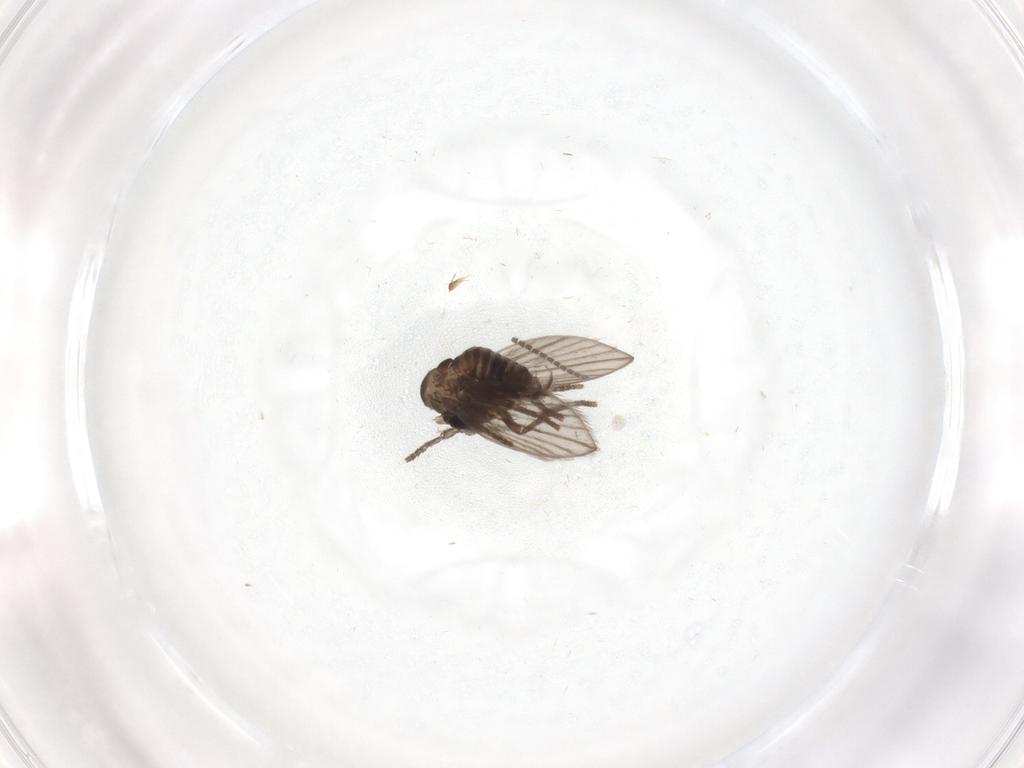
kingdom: Animalia
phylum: Arthropoda
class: Insecta
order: Diptera
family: Psychodidae
